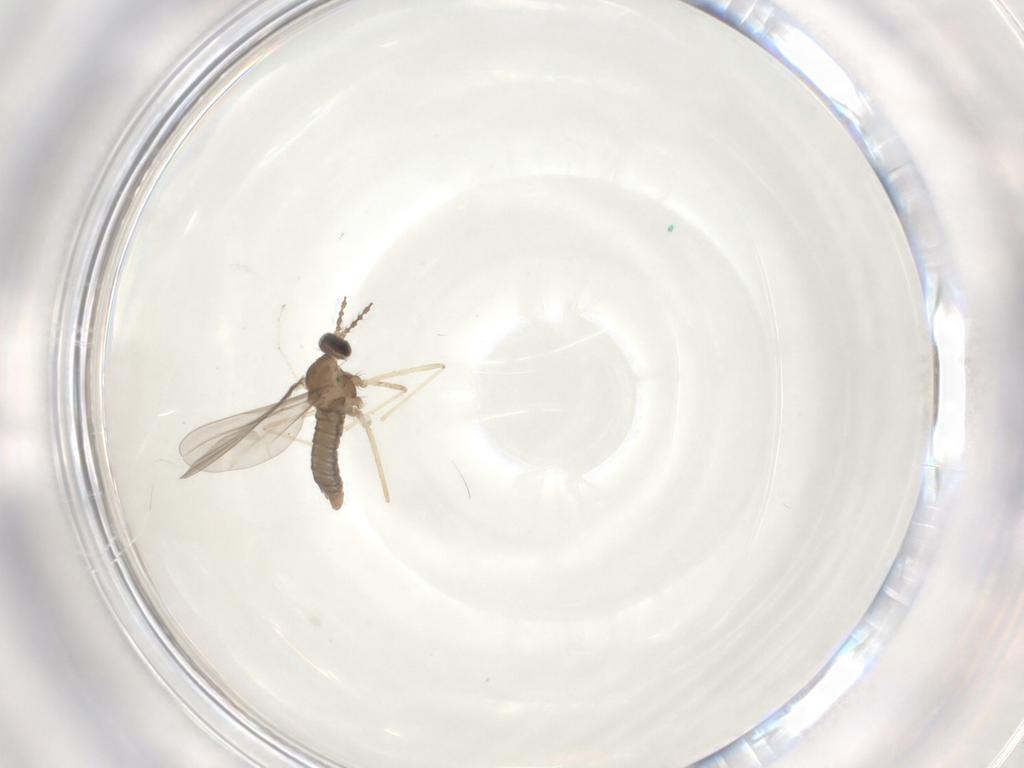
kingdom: Animalia
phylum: Arthropoda
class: Insecta
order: Diptera
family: Cecidomyiidae
